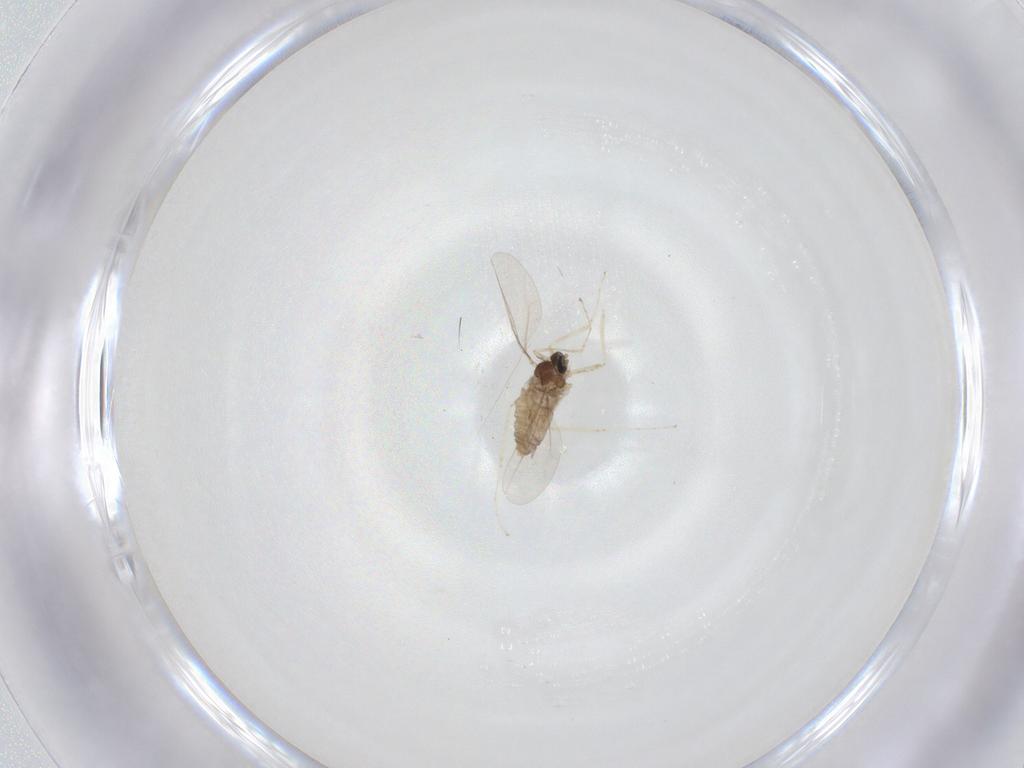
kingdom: Animalia
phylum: Arthropoda
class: Insecta
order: Diptera
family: Cecidomyiidae
